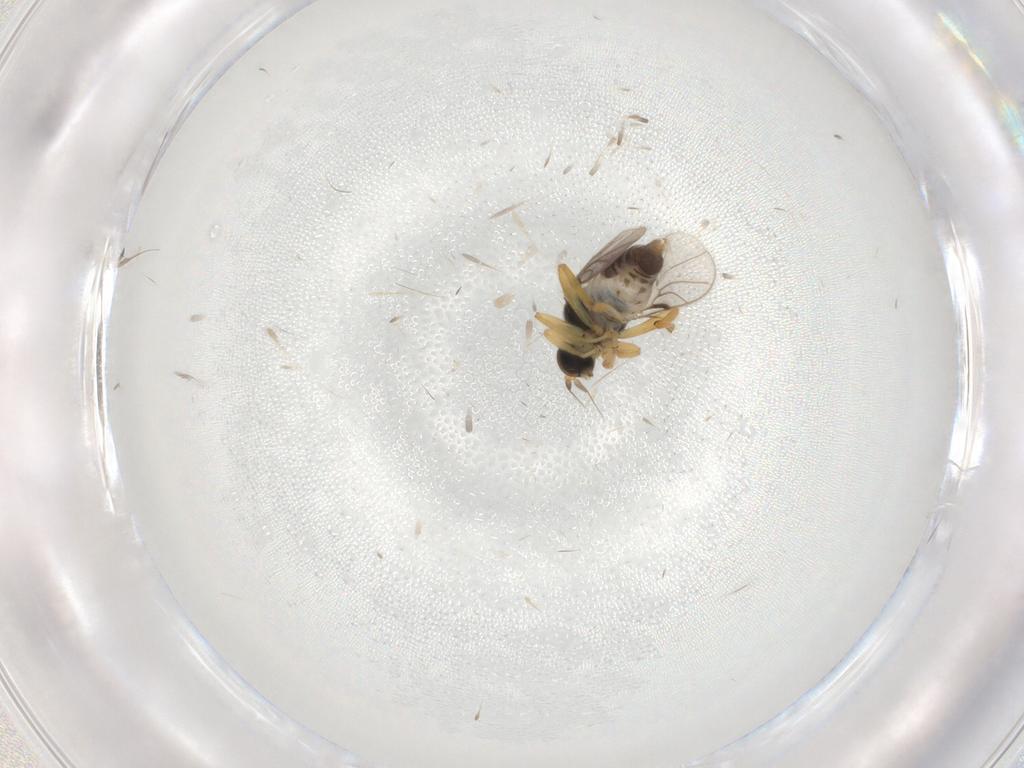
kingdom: Animalia
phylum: Arthropoda
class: Insecta
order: Diptera
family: Hybotidae
